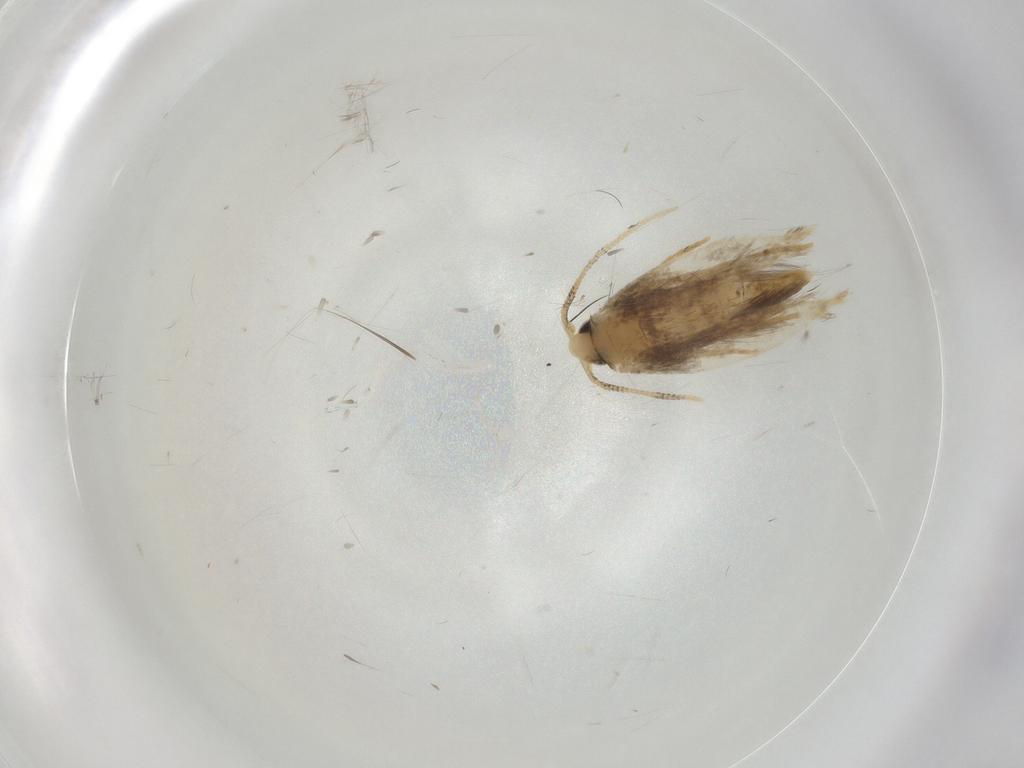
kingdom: Animalia
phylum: Arthropoda
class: Insecta
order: Lepidoptera
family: Tineidae
